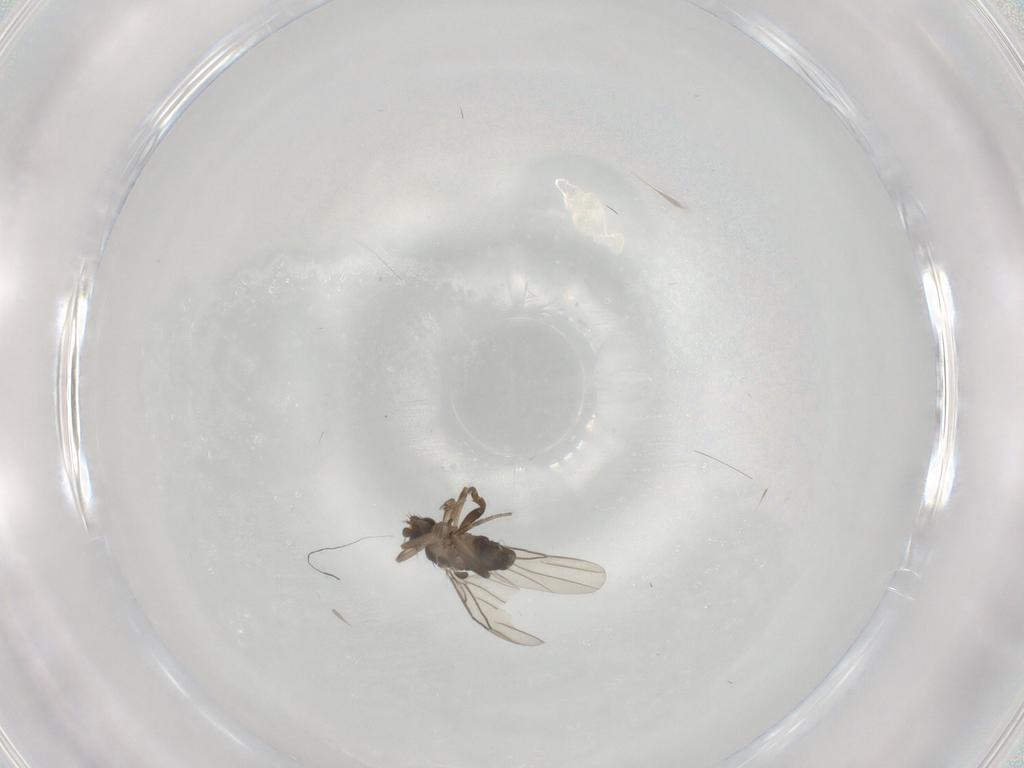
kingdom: Animalia
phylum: Arthropoda
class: Insecta
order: Diptera
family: Phoridae
